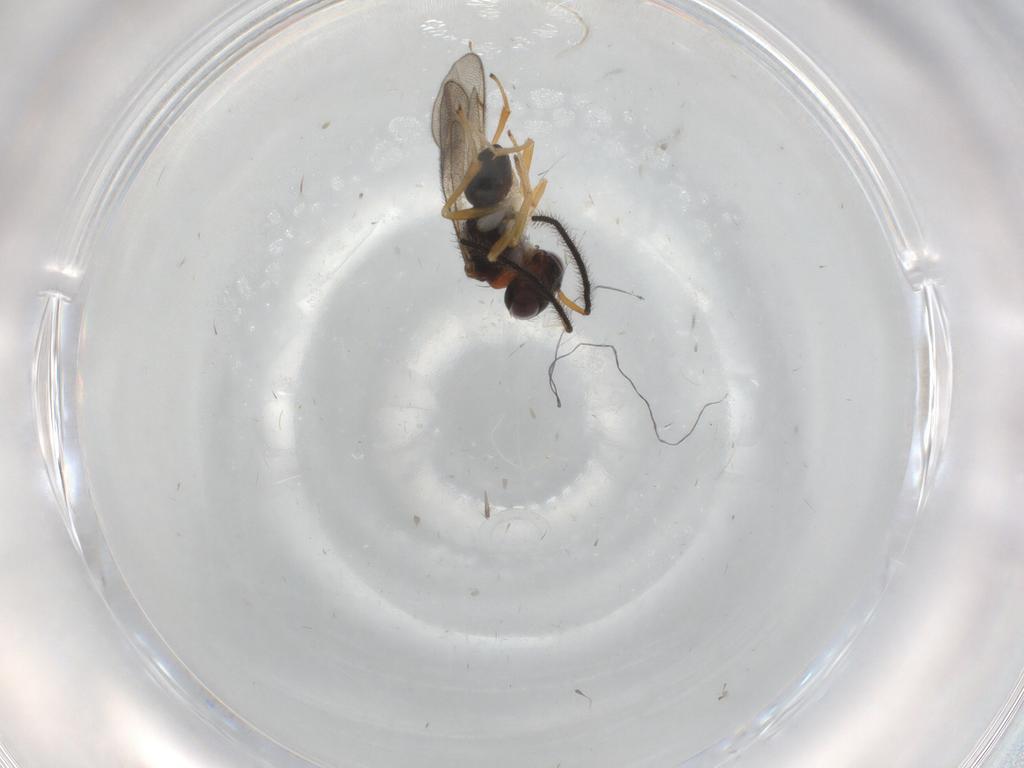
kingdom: Animalia
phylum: Arthropoda
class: Insecta
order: Hymenoptera
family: Diparidae
